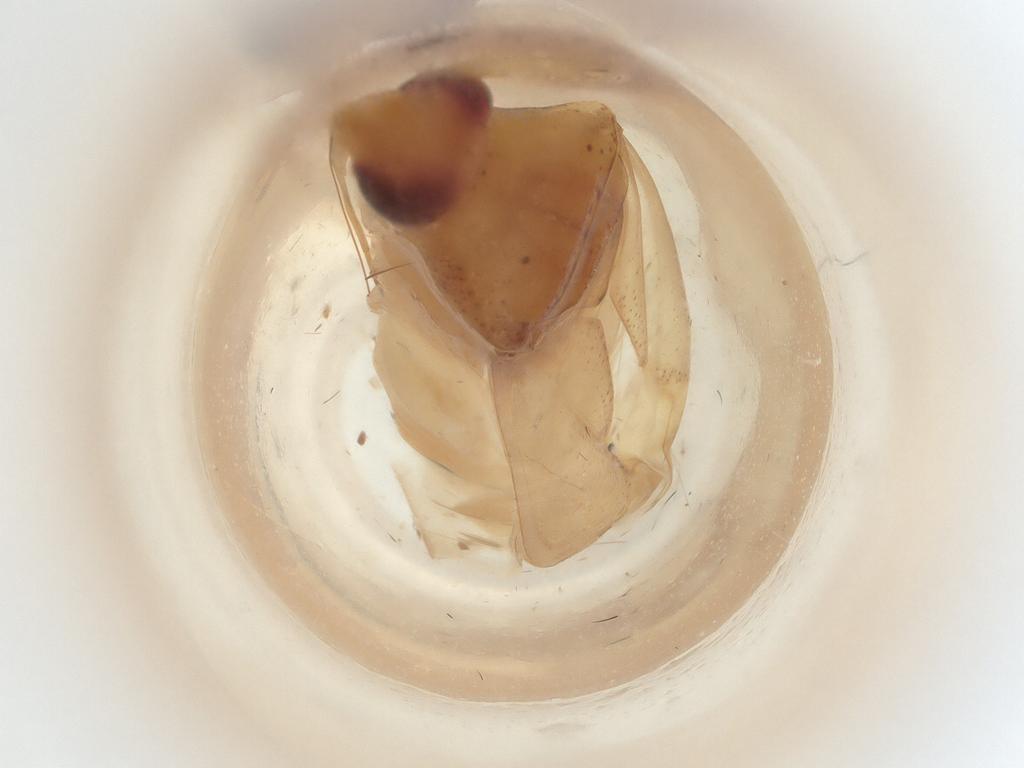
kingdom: Animalia
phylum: Arthropoda
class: Insecta
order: Hemiptera
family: Miridae
